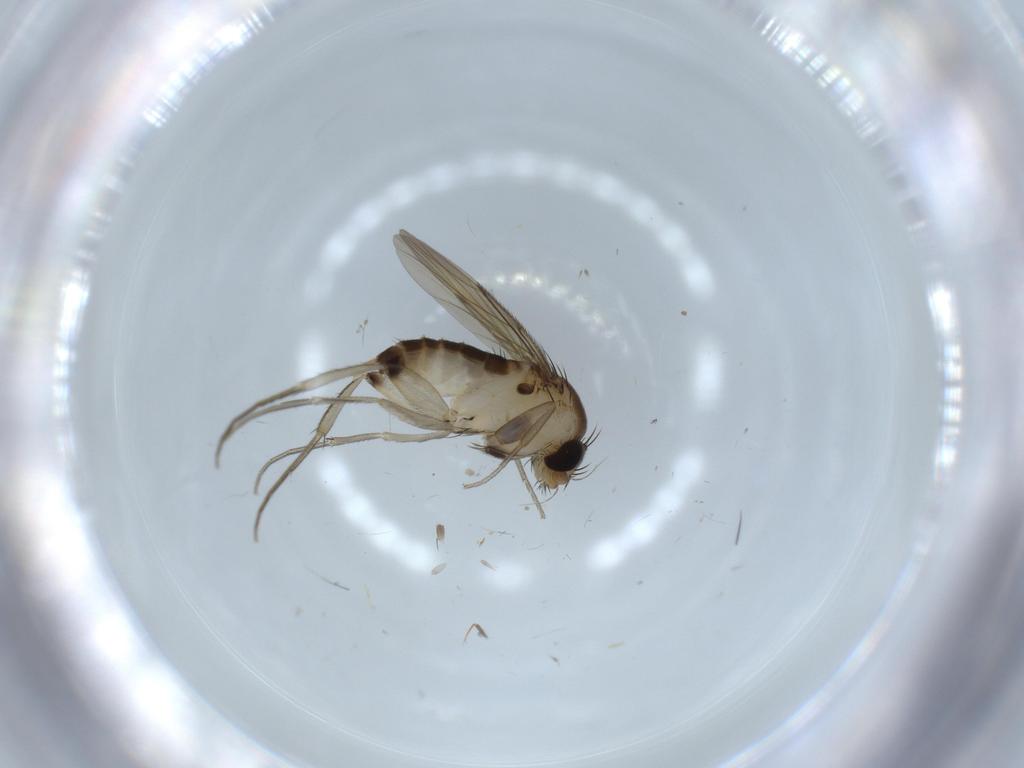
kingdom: Animalia
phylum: Arthropoda
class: Insecta
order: Diptera
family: Cecidomyiidae
